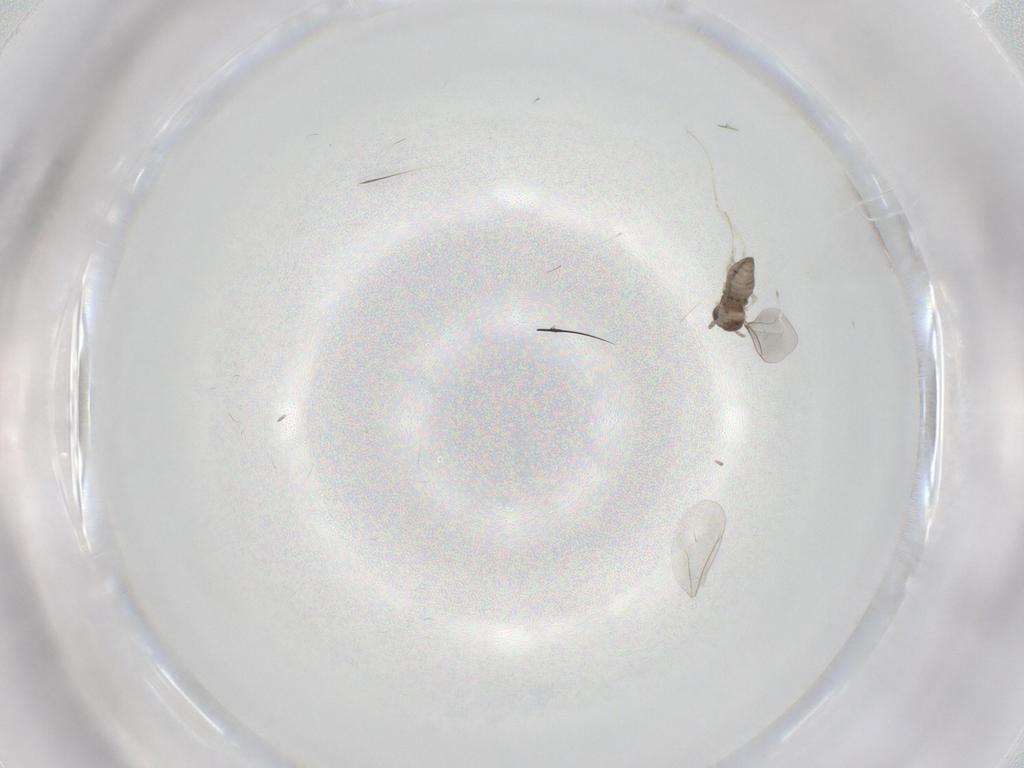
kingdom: Animalia
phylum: Arthropoda
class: Insecta
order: Diptera
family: Cecidomyiidae
